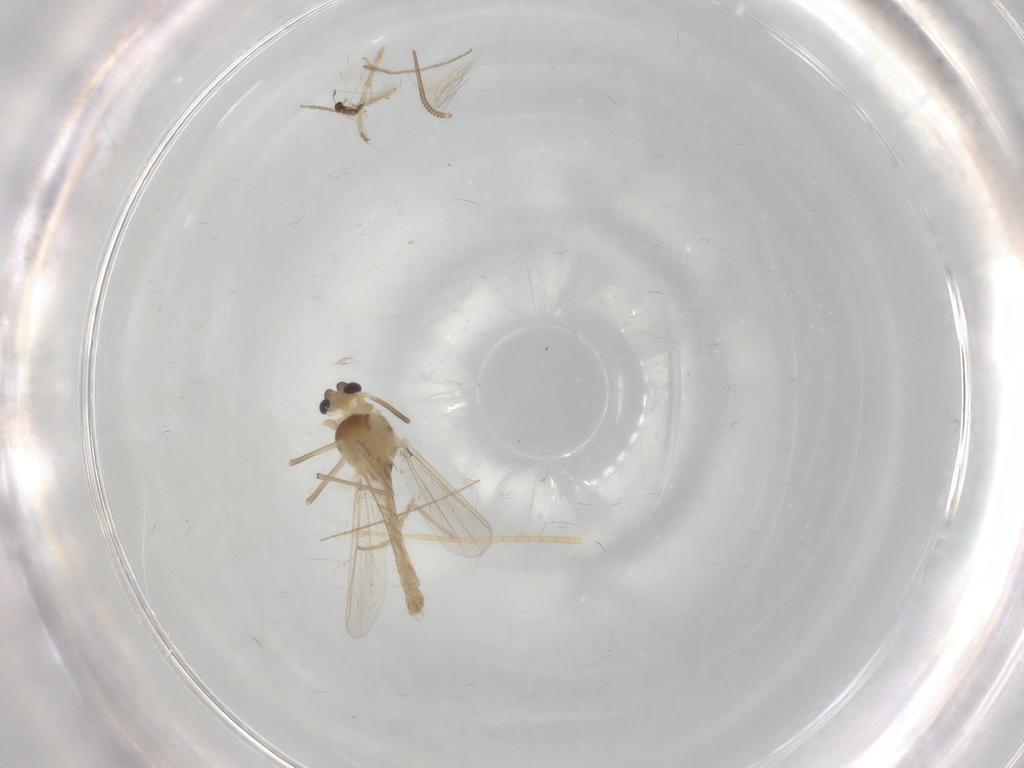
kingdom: Animalia
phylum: Arthropoda
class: Insecta
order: Diptera
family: Chironomidae
